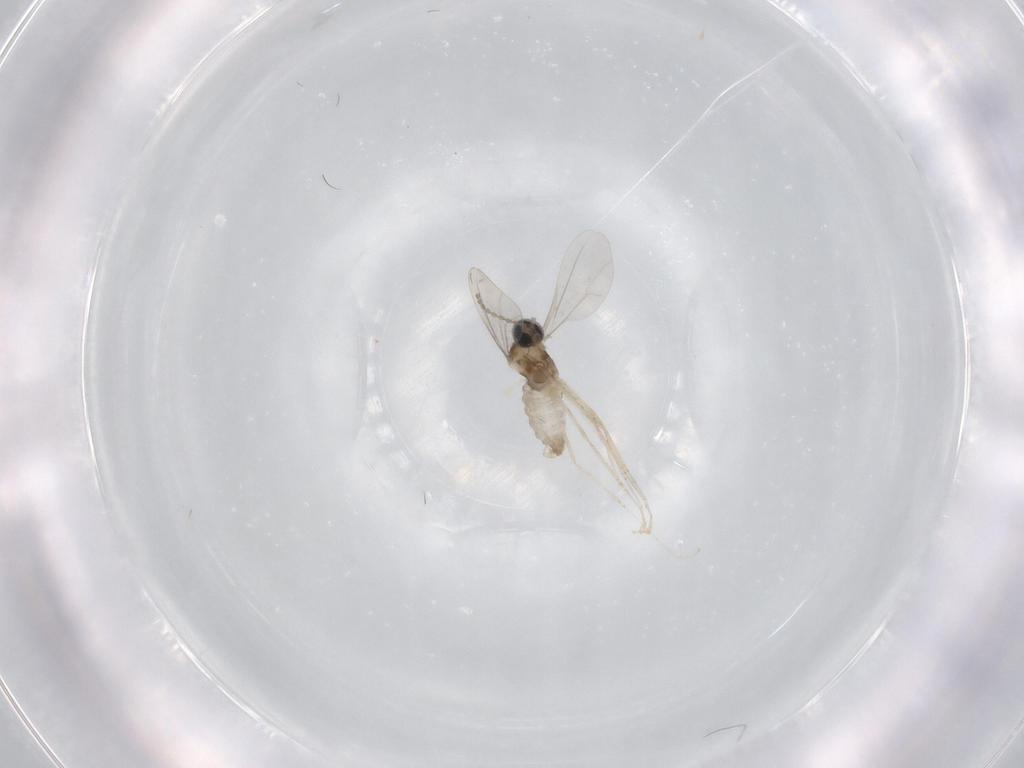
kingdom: Animalia
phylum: Arthropoda
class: Insecta
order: Diptera
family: Cecidomyiidae
